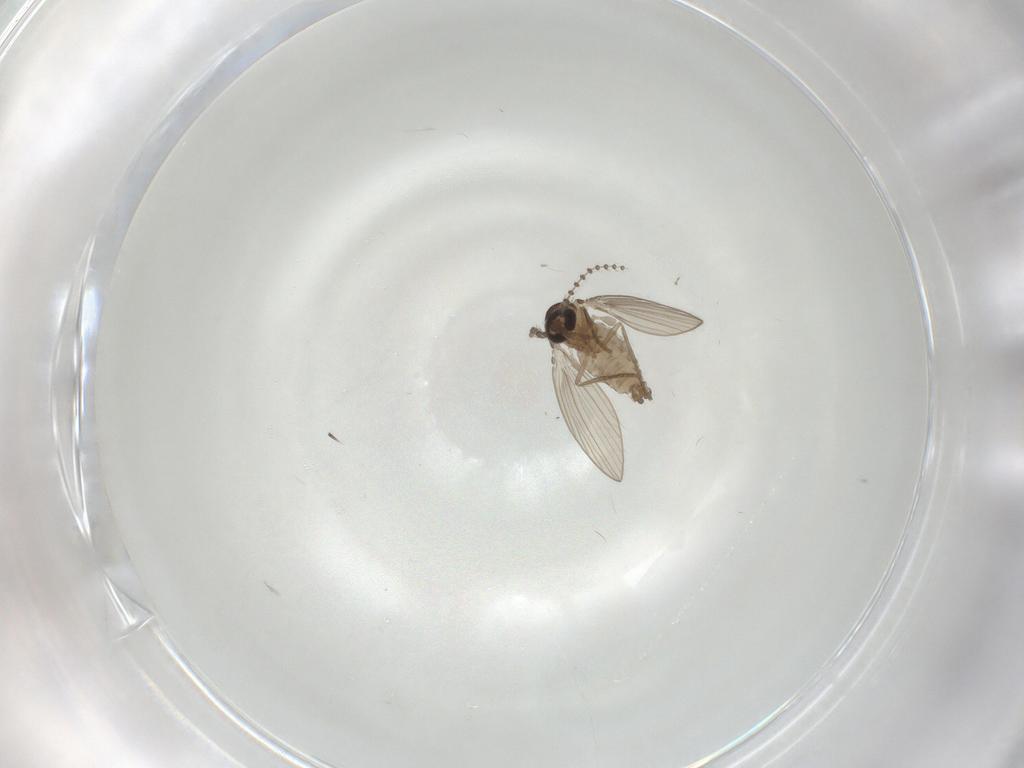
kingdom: Animalia
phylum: Arthropoda
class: Insecta
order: Diptera
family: Psychodidae
